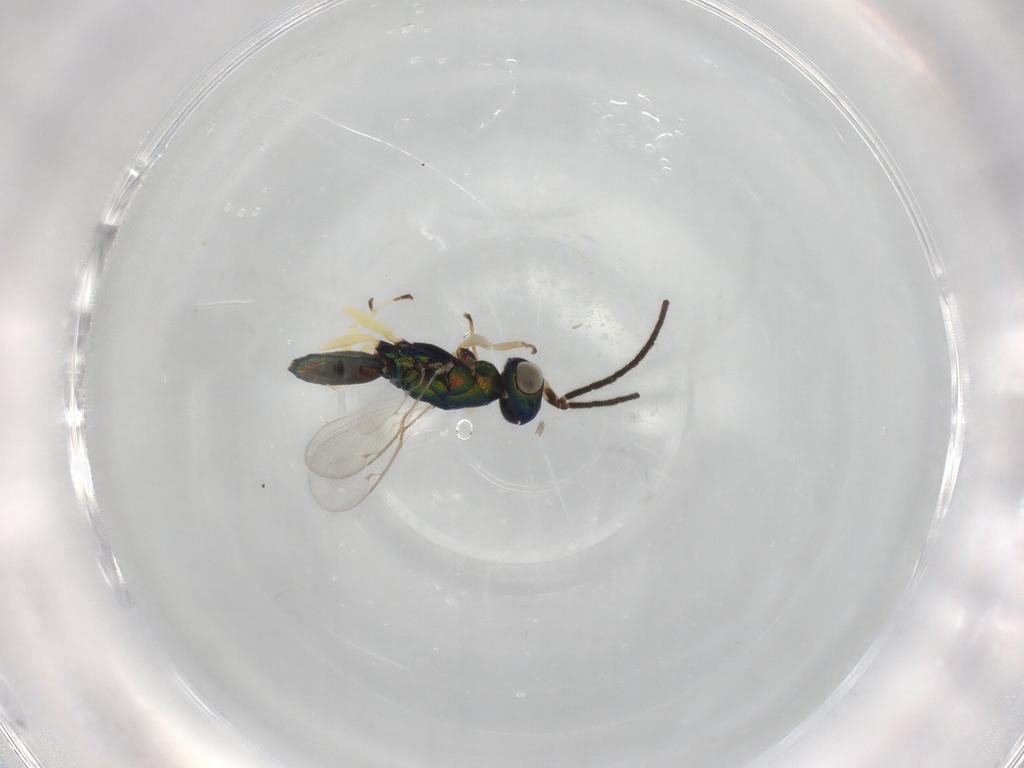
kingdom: Animalia
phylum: Arthropoda
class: Insecta
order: Hymenoptera
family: Pteromalidae
